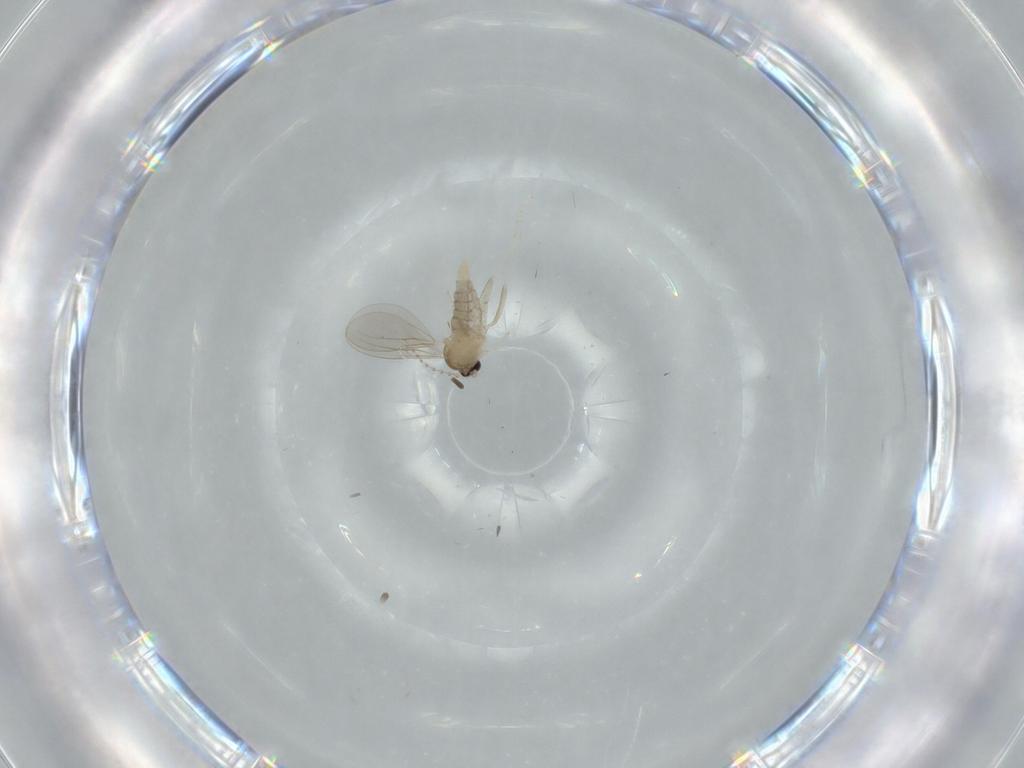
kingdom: Animalia
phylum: Arthropoda
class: Insecta
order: Diptera
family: Cecidomyiidae
